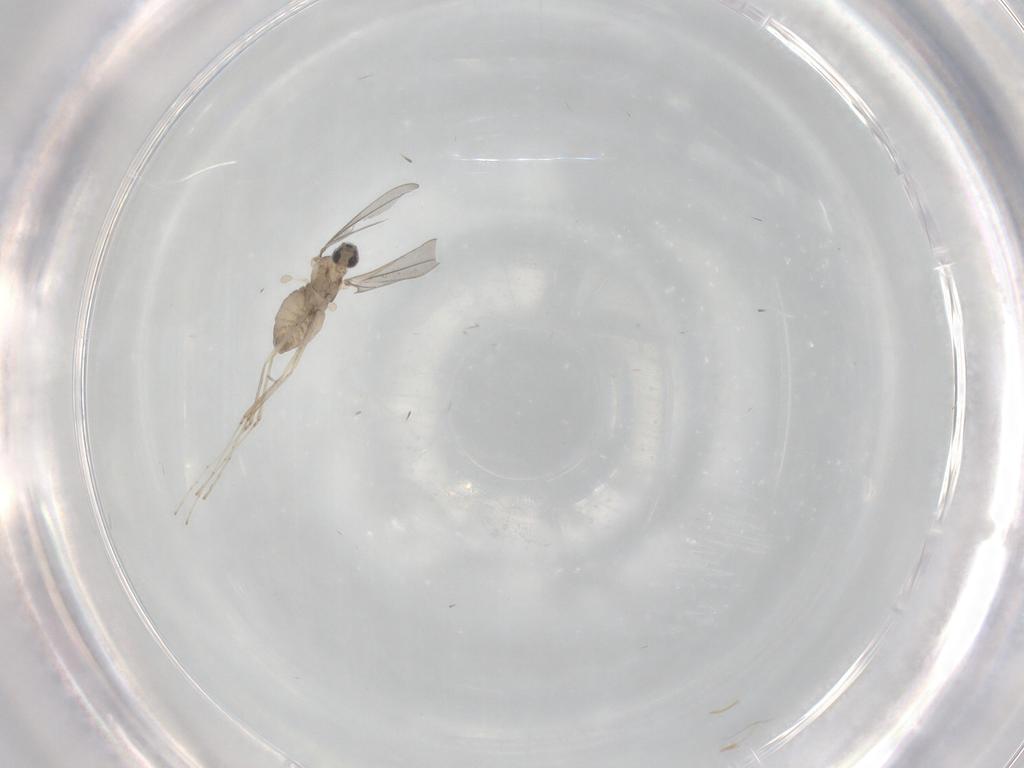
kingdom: Animalia
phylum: Arthropoda
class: Insecta
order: Diptera
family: Cecidomyiidae
